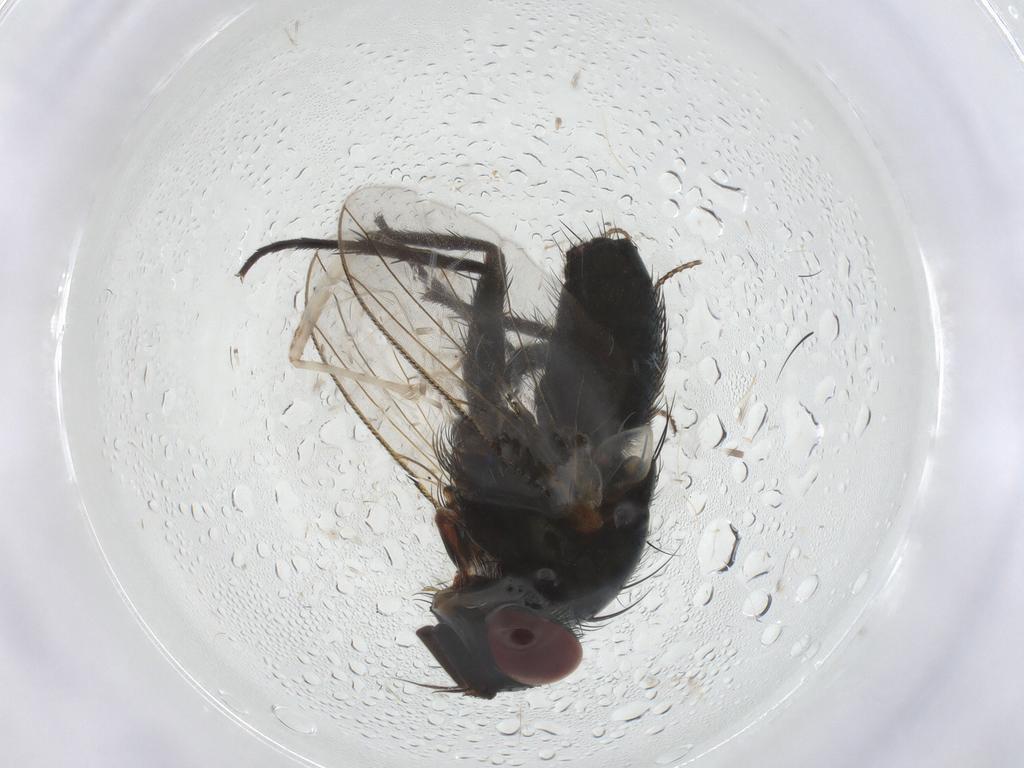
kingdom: Animalia
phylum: Arthropoda
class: Insecta
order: Diptera
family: Tachinidae
